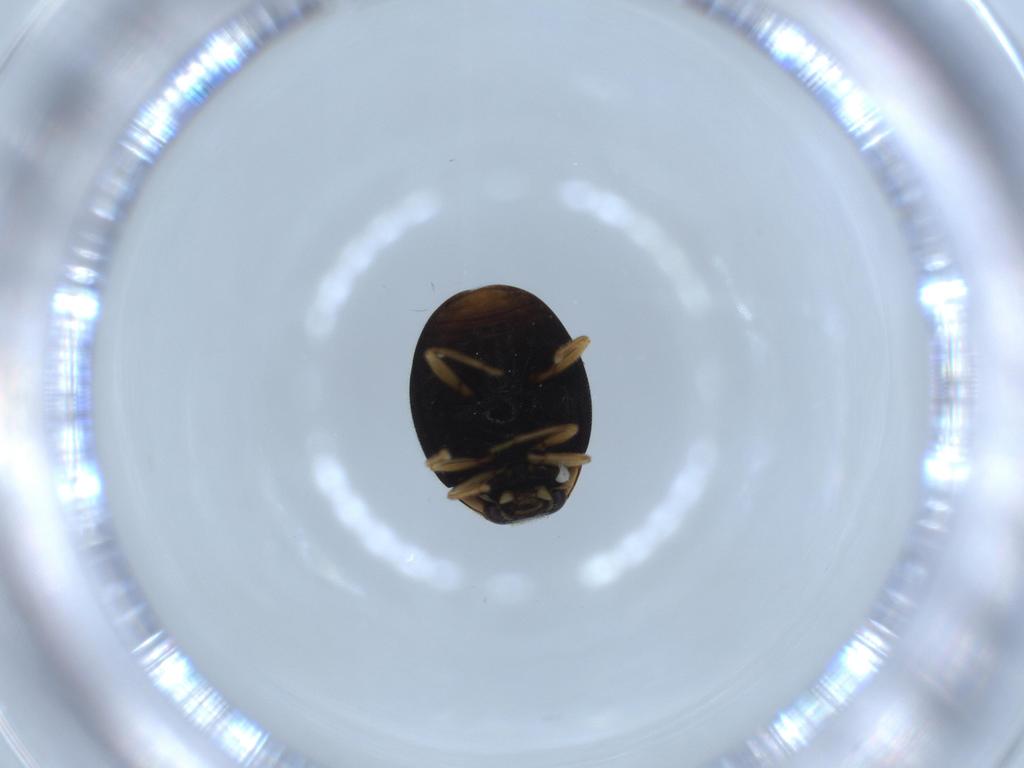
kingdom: Animalia
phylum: Arthropoda
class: Insecta
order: Coleoptera
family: Coccinellidae
